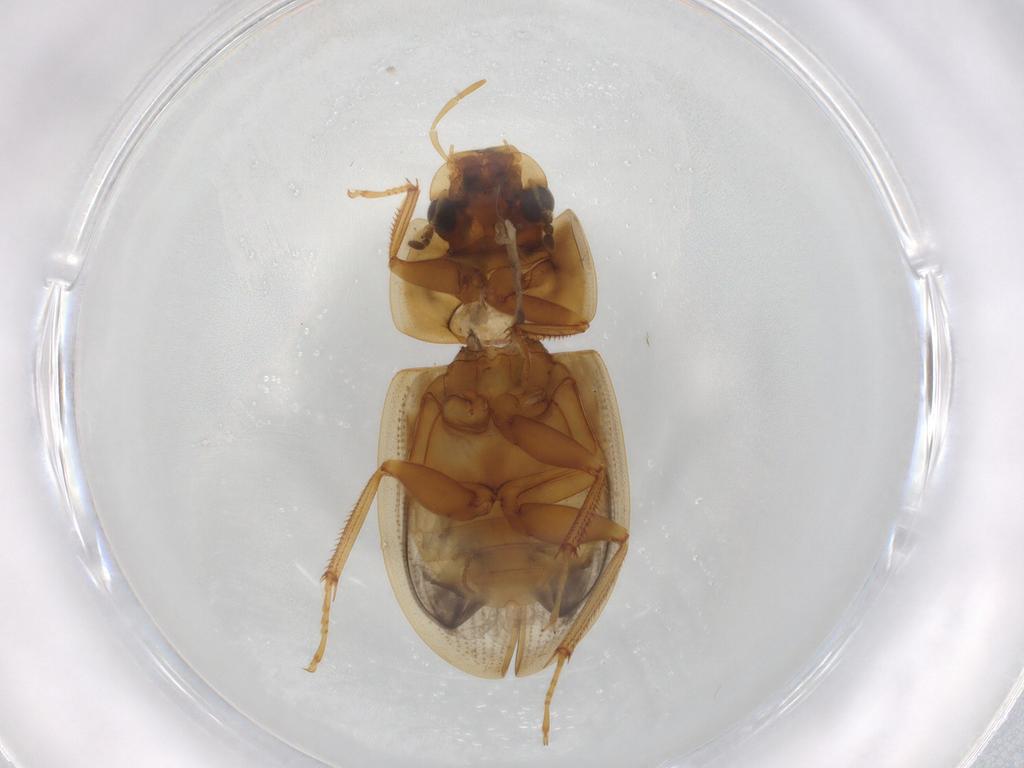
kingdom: Animalia
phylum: Arthropoda
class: Insecta
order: Coleoptera
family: Carabidae
